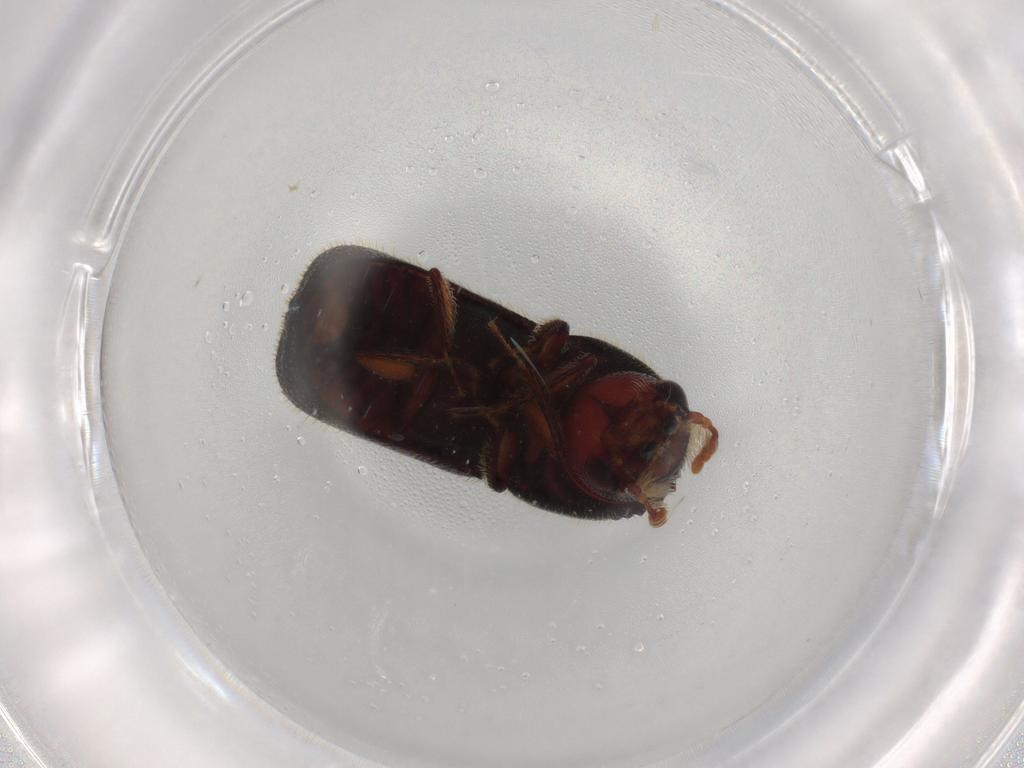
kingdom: Animalia
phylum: Arthropoda
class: Insecta
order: Coleoptera
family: Bostrichidae
